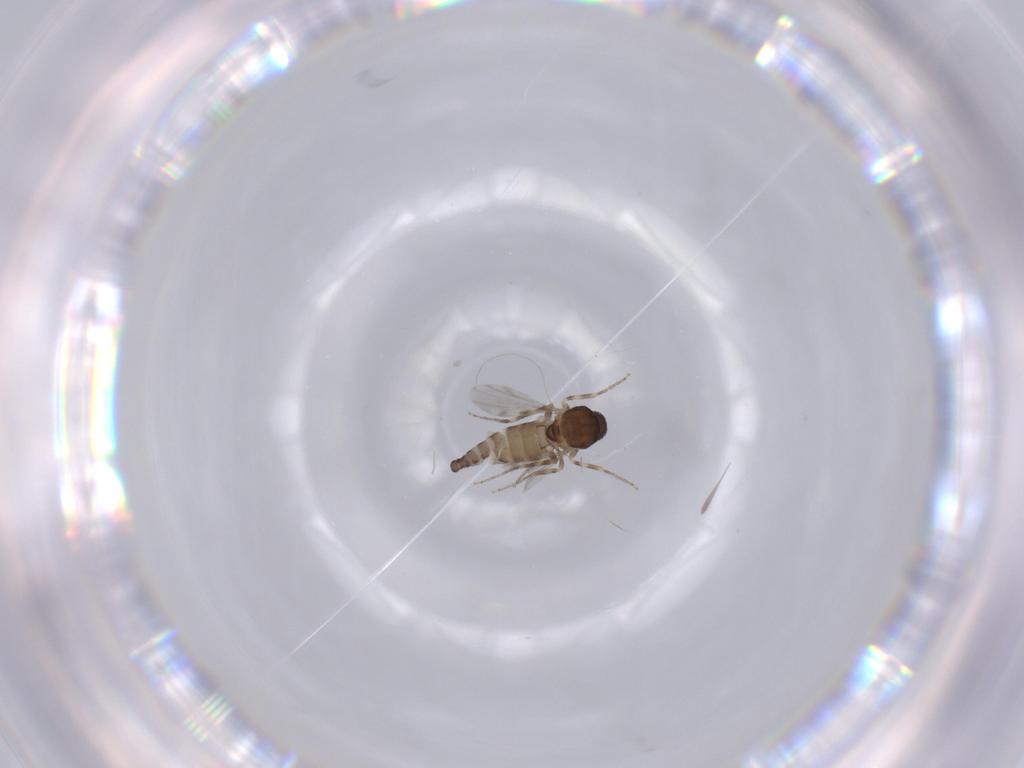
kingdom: Animalia
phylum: Arthropoda
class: Insecta
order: Diptera
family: Ceratopogonidae
